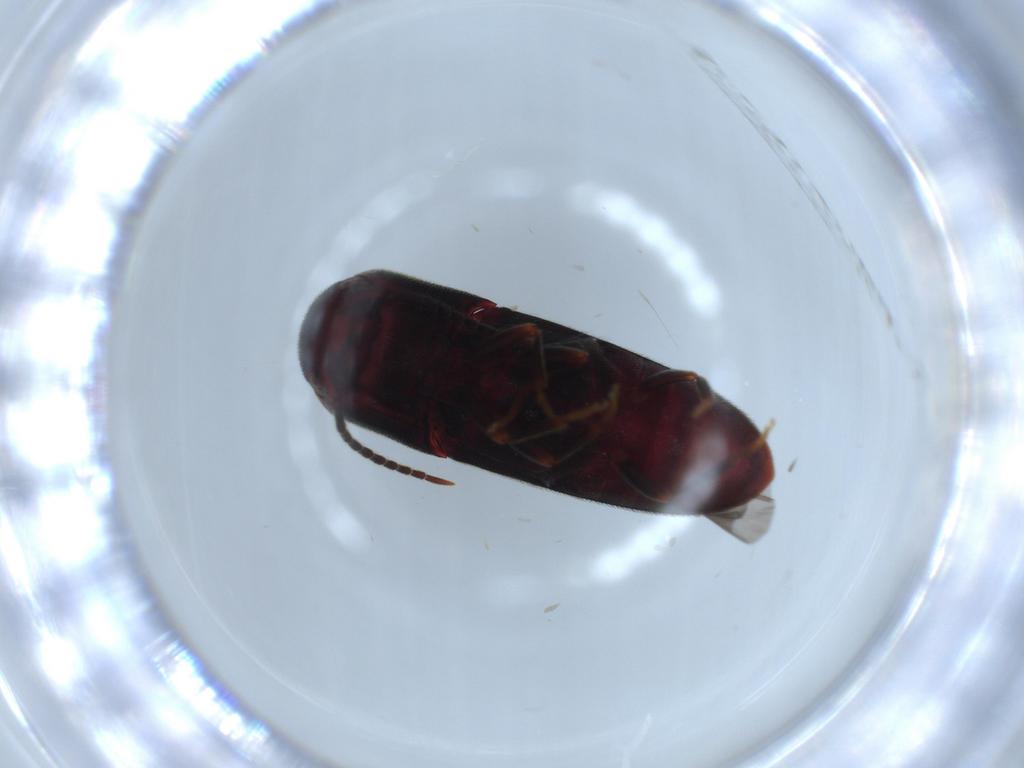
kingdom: Animalia
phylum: Arthropoda
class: Insecta
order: Coleoptera
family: Eucnemidae
